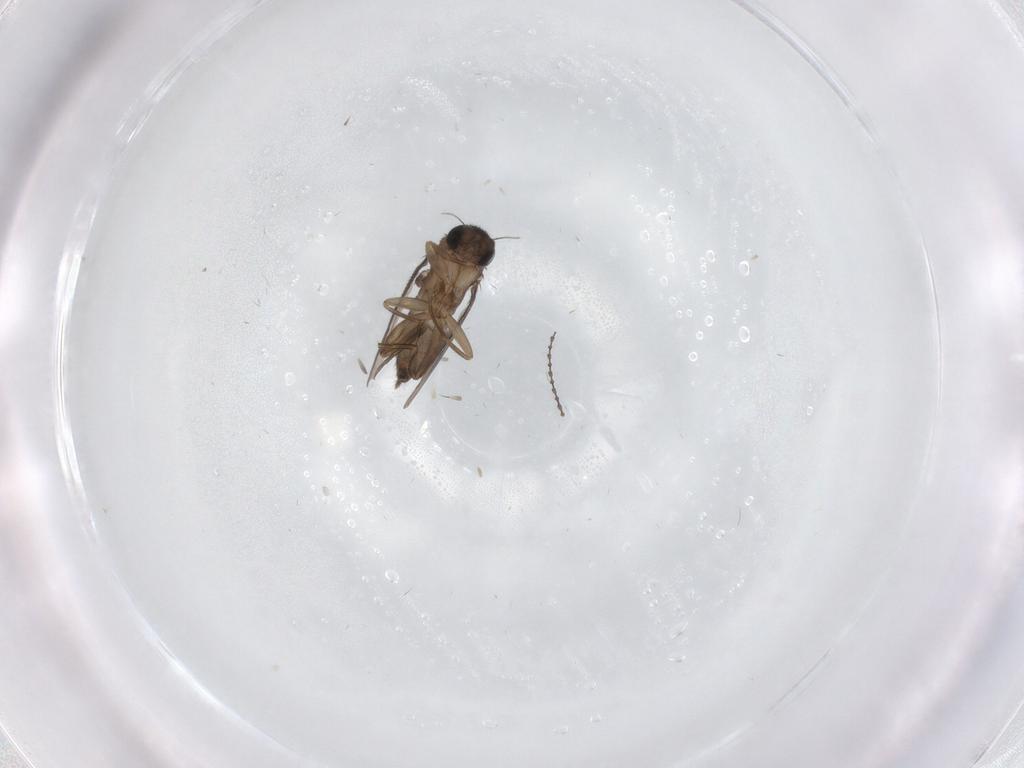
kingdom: Animalia
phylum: Arthropoda
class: Insecta
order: Diptera
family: Phoridae
